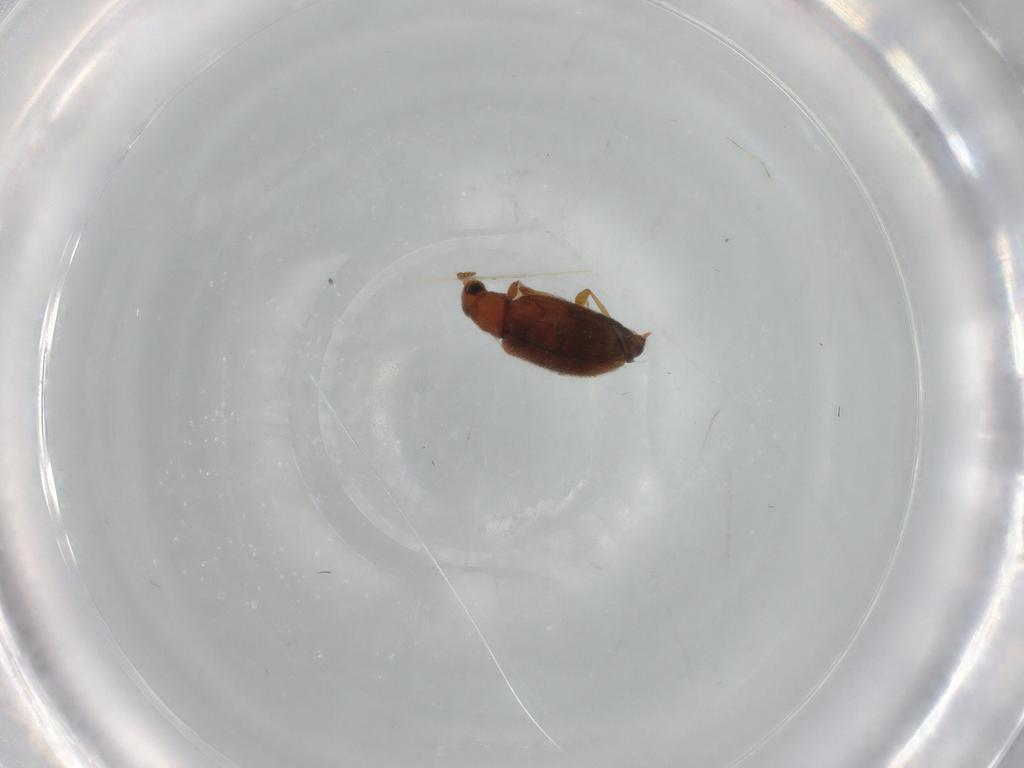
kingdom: Animalia
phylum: Arthropoda
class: Insecta
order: Coleoptera
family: Latridiidae
